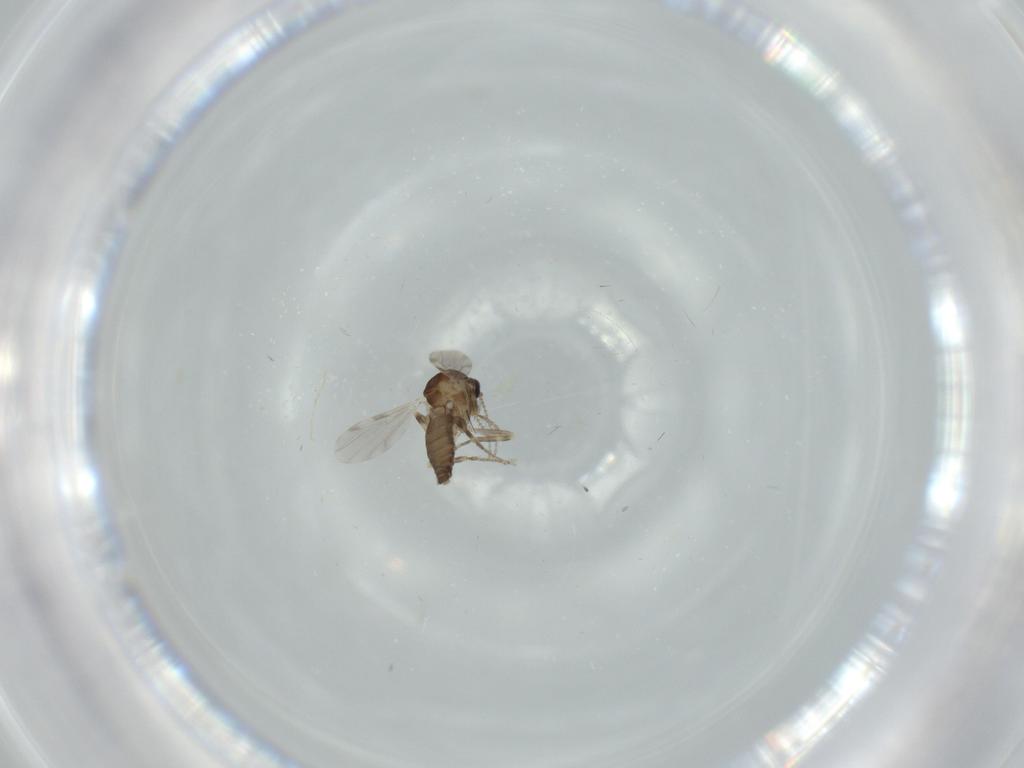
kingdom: Animalia
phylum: Arthropoda
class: Insecta
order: Diptera
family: Ceratopogonidae
